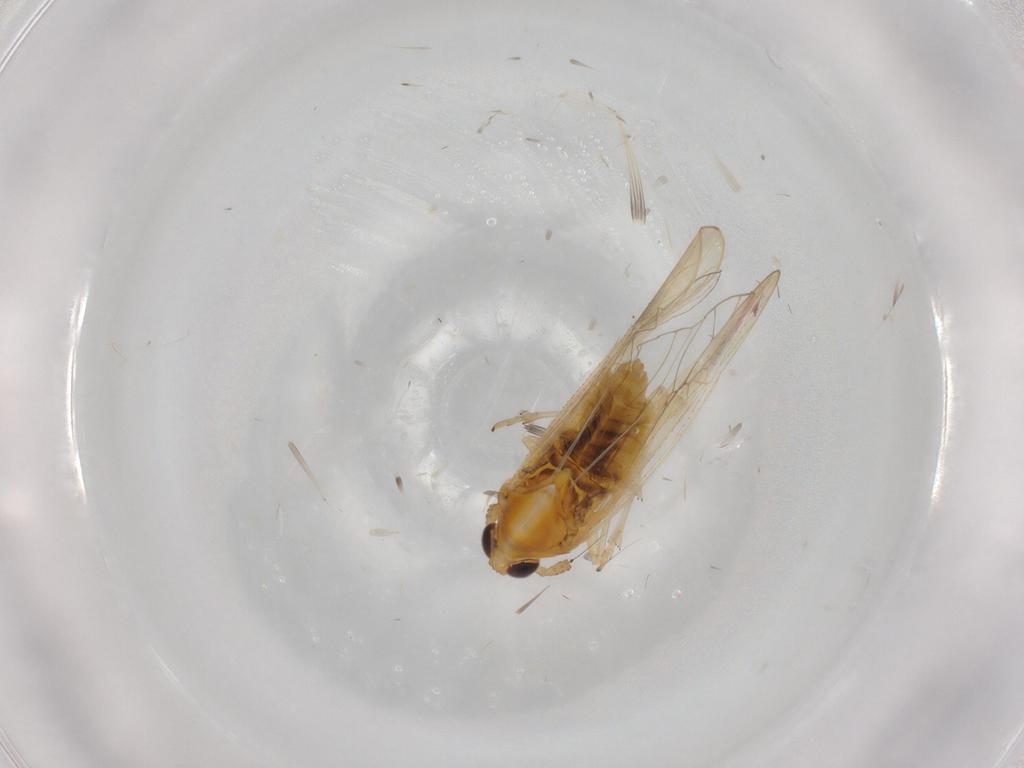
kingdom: Animalia
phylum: Arthropoda
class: Insecta
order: Hemiptera
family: Delphacidae
